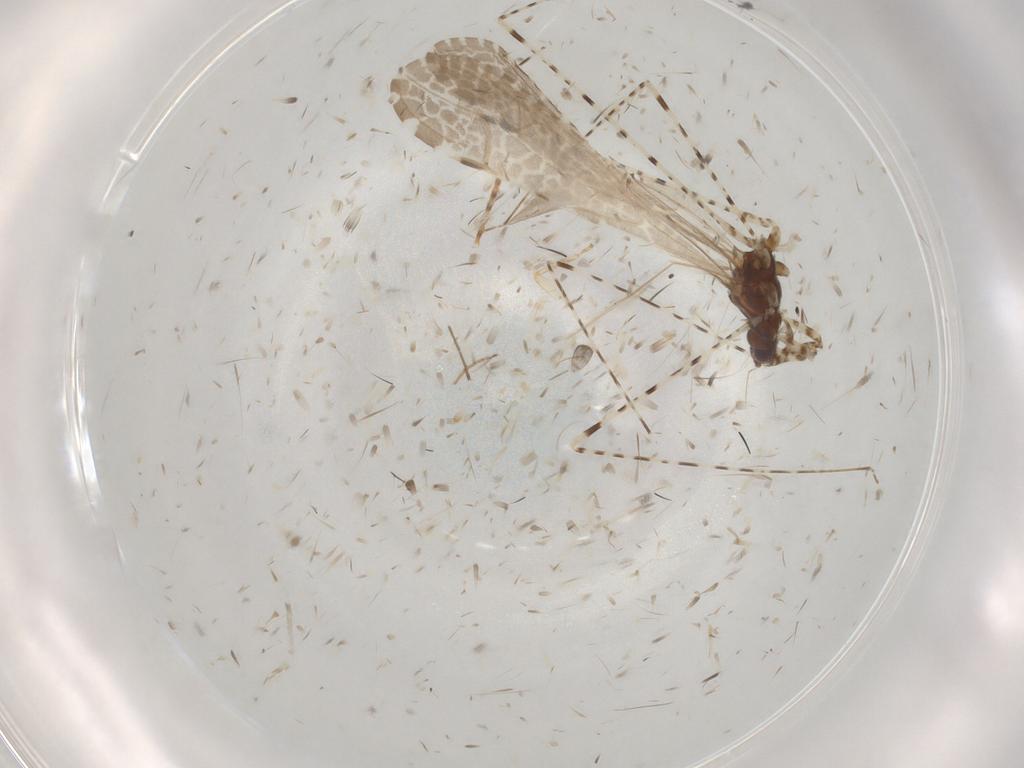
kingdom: Animalia
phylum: Arthropoda
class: Insecta
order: Hemiptera
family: Reduviidae
